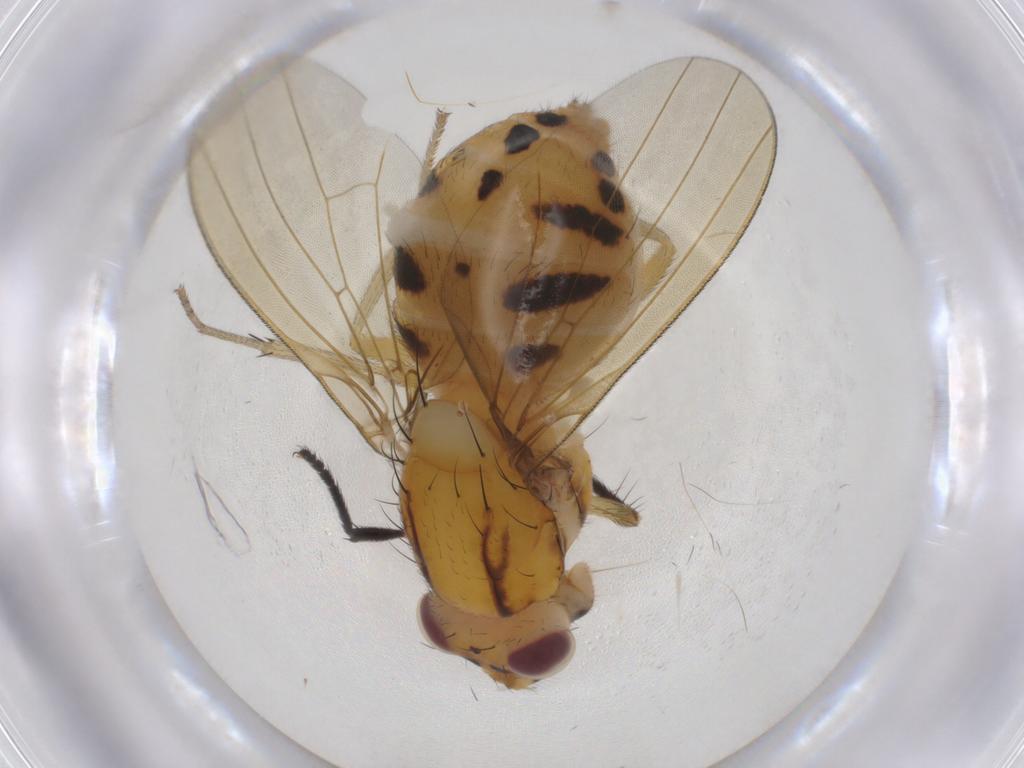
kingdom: Animalia
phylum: Arthropoda
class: Insecta
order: Diptera
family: Lauxaniidae
